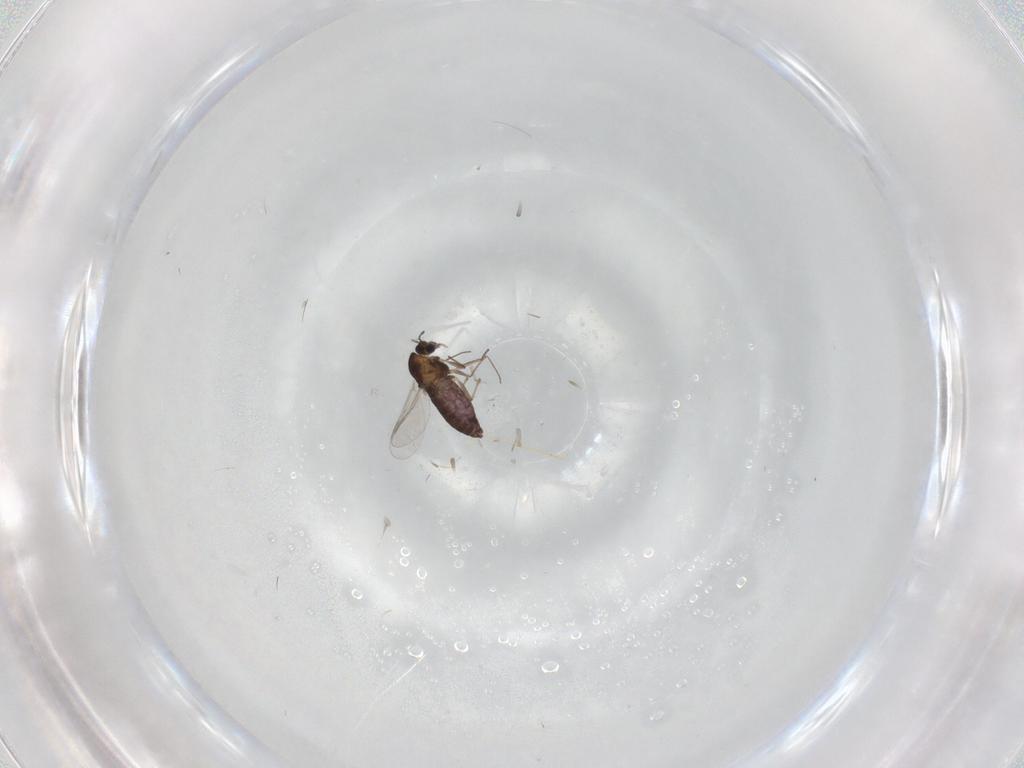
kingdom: Animalia
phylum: Arthropoda
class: Insecta
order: Diptera
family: Chironomidae
